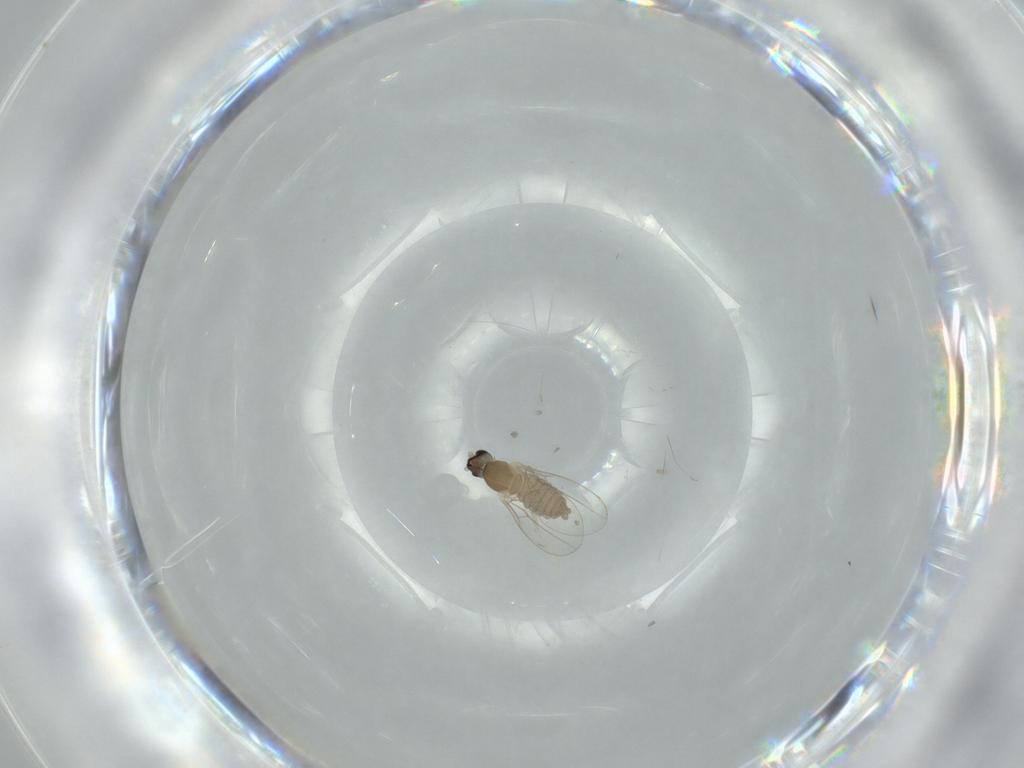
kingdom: Animalia
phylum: Arthropoda
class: Insecta
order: Diptera
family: Cecidomyiidae
